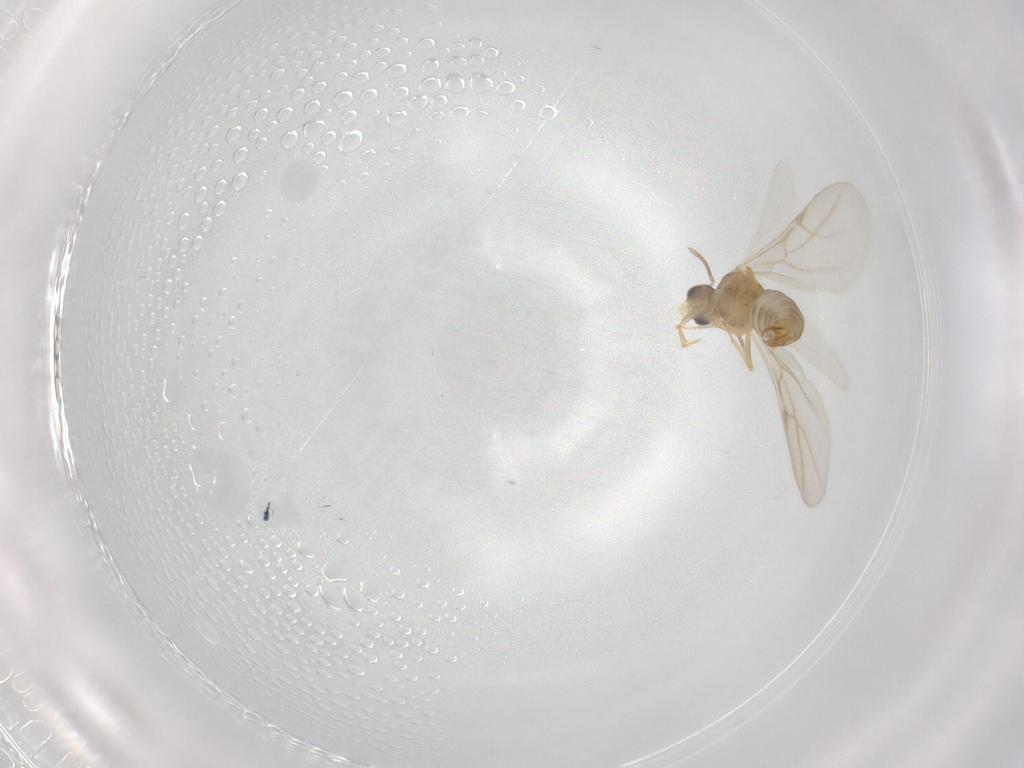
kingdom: Animalia
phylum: Arthropoda
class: Insecta
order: Hymenoptera
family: Formicidae
